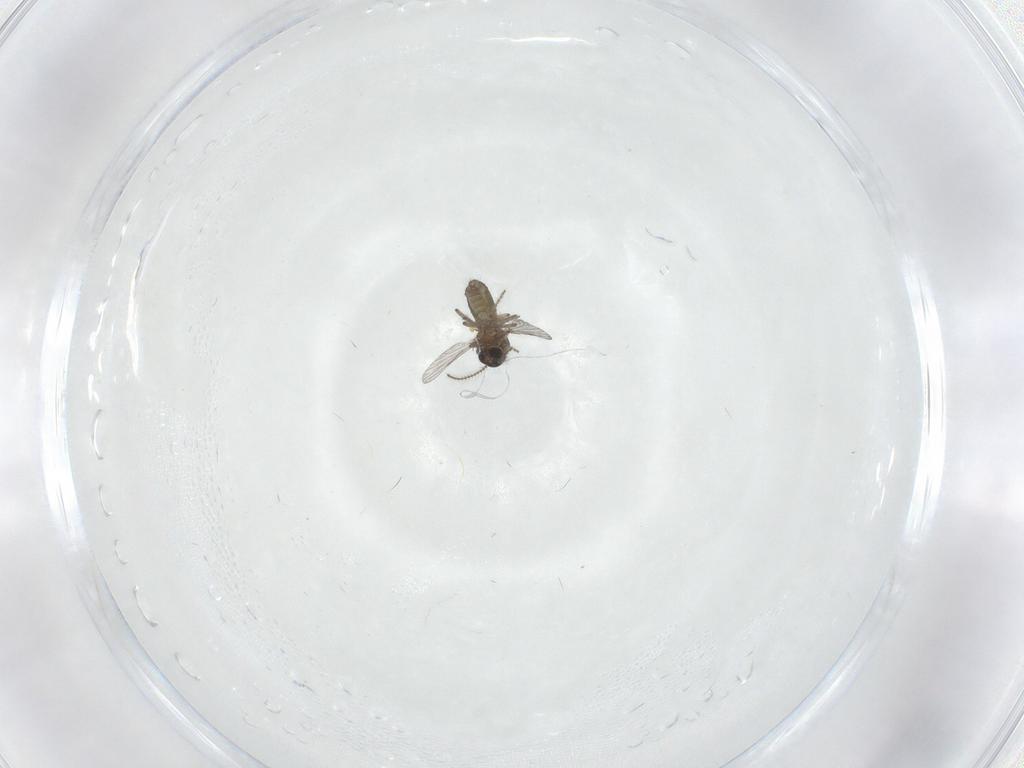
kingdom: Animalia
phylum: Arthropoda
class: Insecta
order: Diptera
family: Ceratopogonidae
